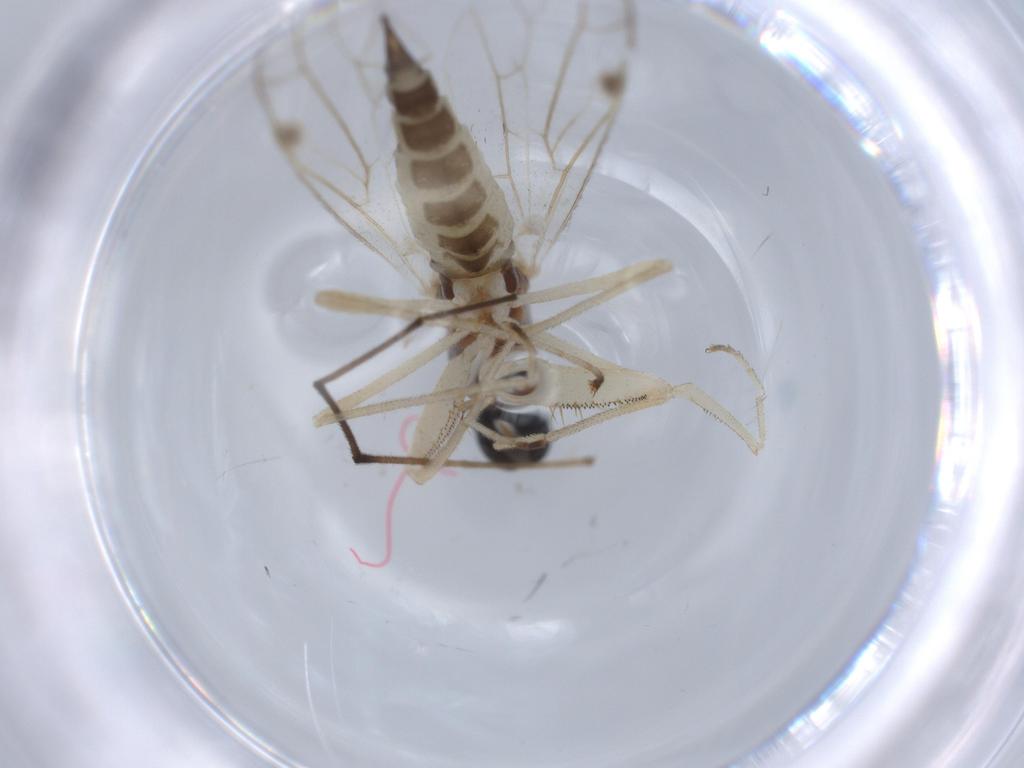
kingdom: Animalia
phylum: Arthropoda
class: Insecta
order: Diptera
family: Empididae
